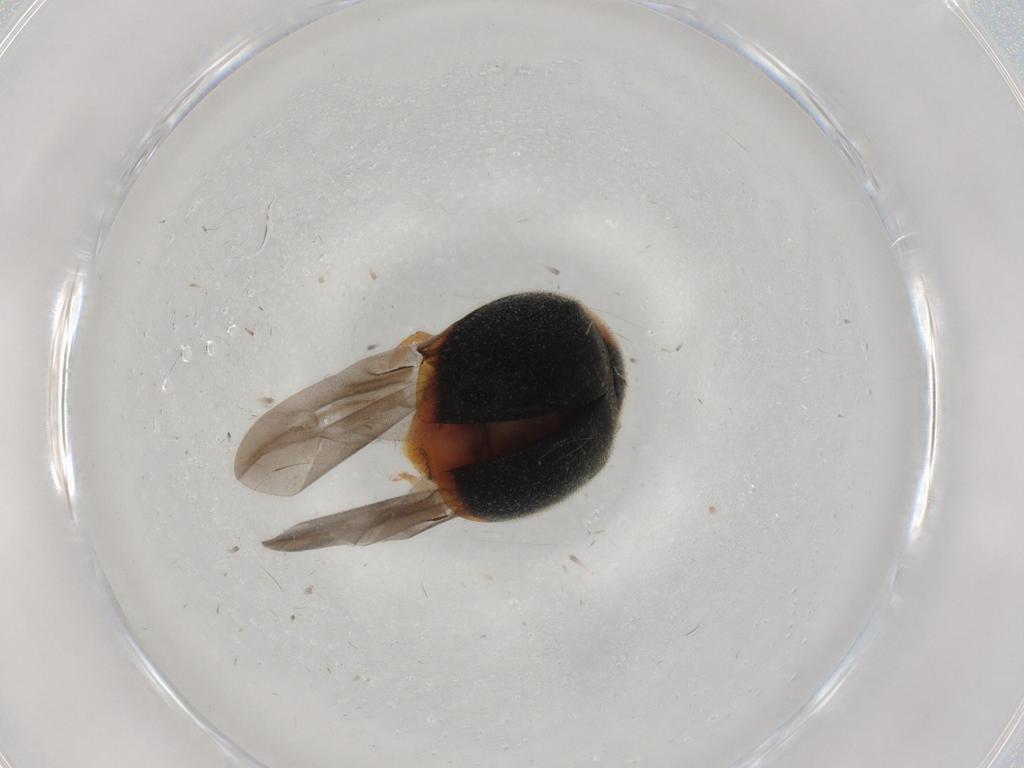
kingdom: Animalia
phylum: Arthropoda
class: Insecta
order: Coleoptera
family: Coccinellidae
